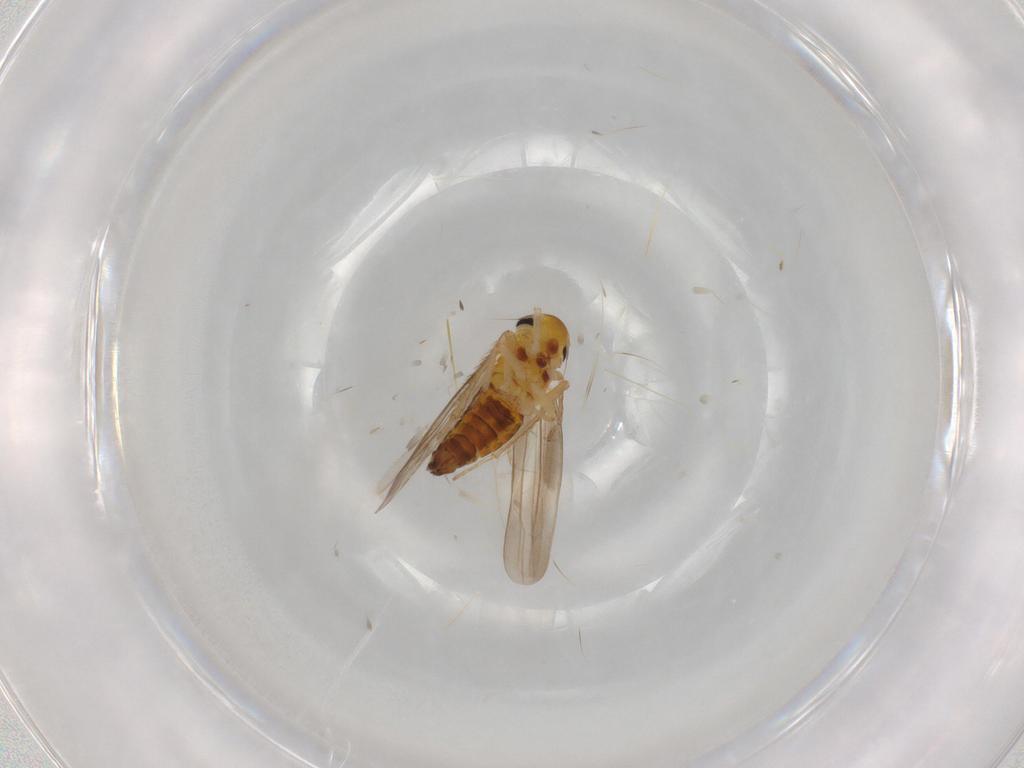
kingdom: Animalia
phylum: Arthropoda
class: Insecta
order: Hemiptera
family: Cicadellidae
